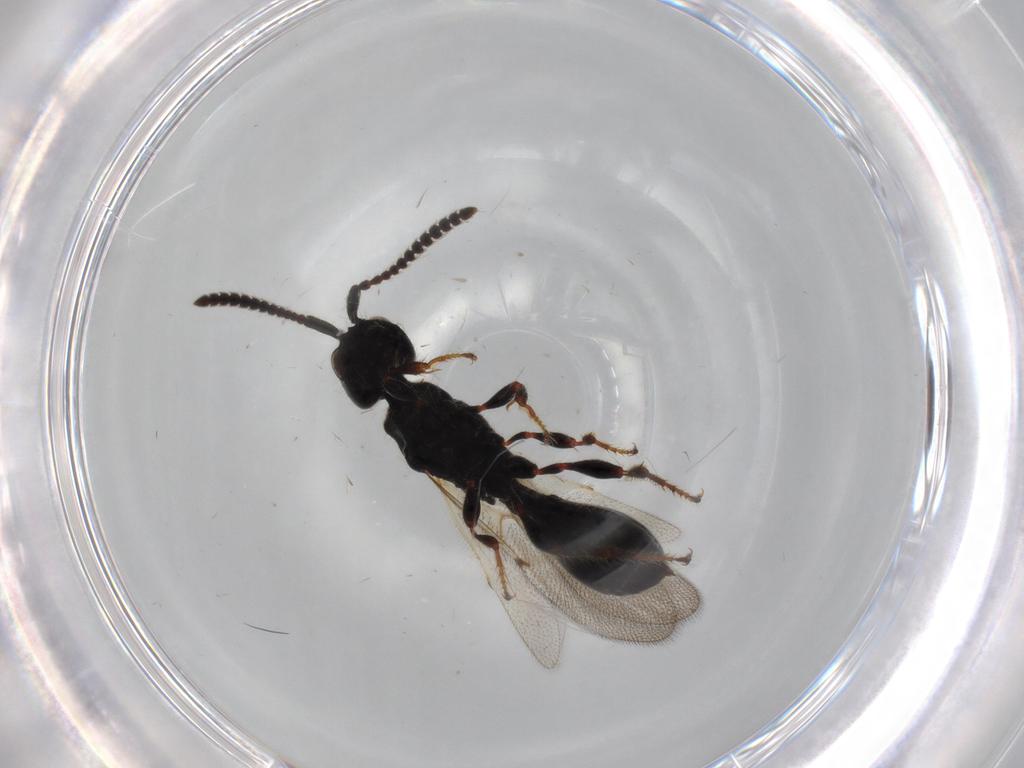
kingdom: Animalia
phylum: Arthropoda
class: Insecta
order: Hymenoptera
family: Diapriidae
